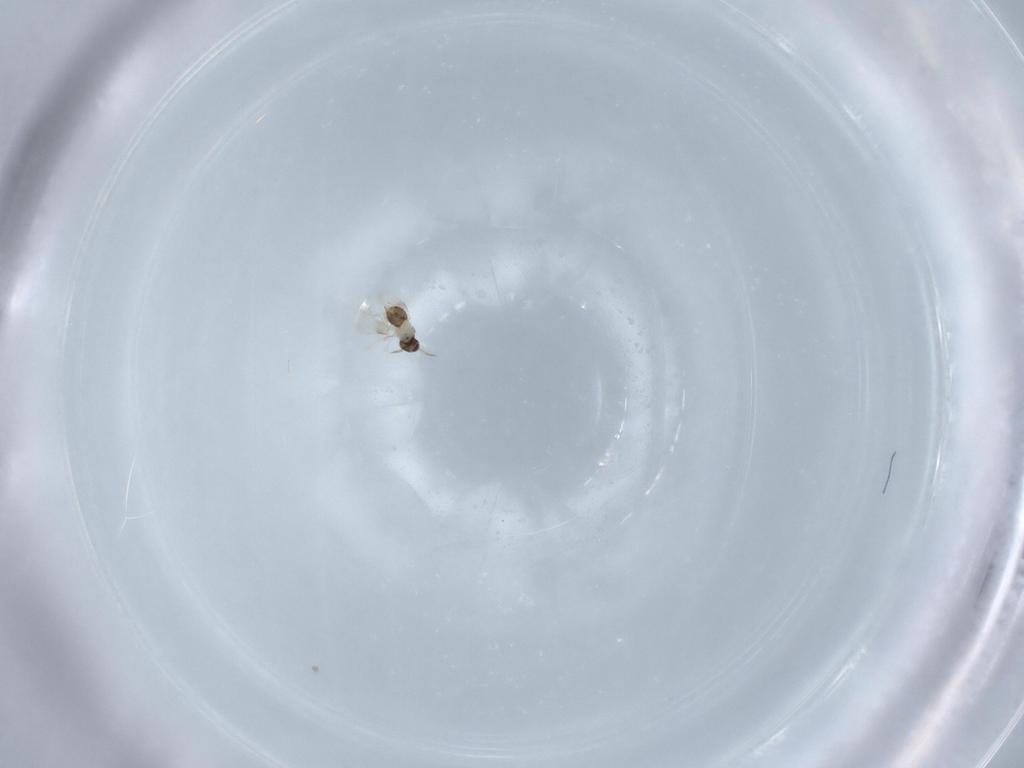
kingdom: Animalia
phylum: Arthropoda
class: Insecta
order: Hymenoptera
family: Aphelinidae
